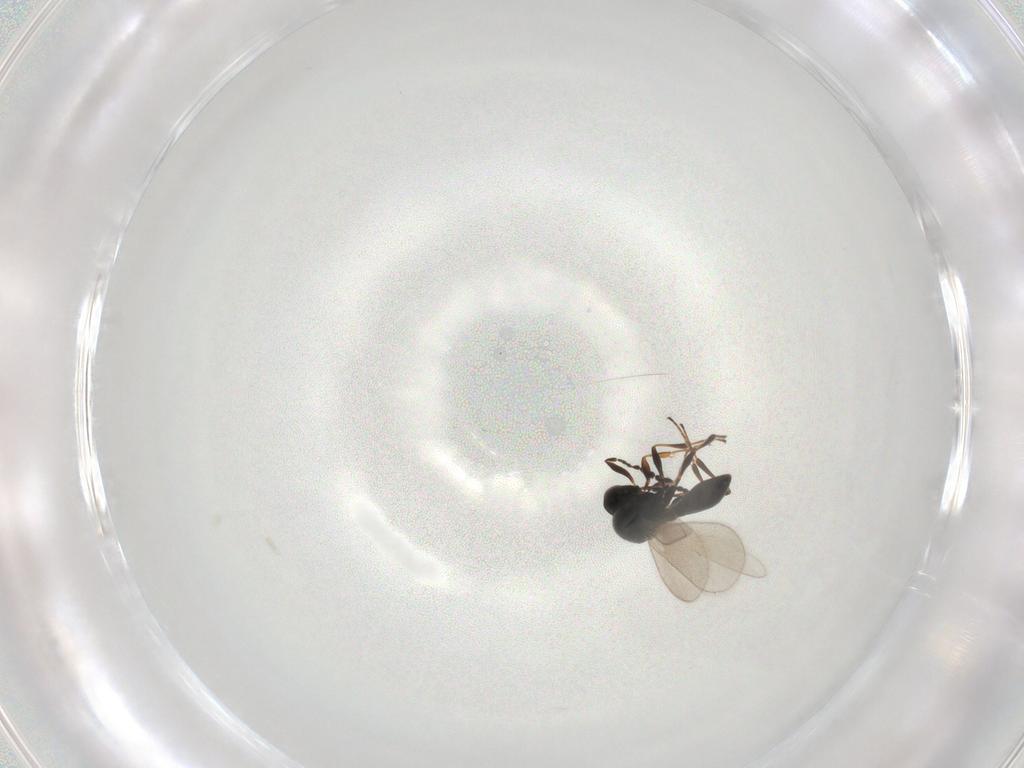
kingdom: Animalia
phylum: Arthropoda
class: Insecta
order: Hymenoptera
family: Platygastridae
